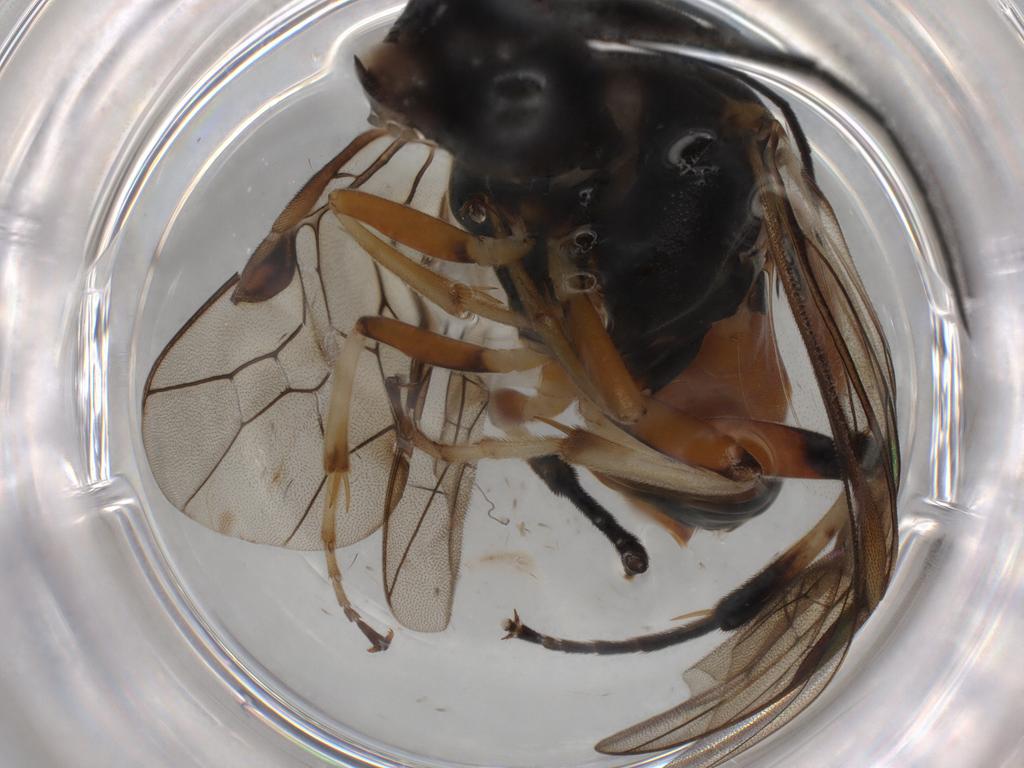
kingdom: Animalia
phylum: Arthropoda
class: Insecta
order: Hymenoptera
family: Tenthredinidae
